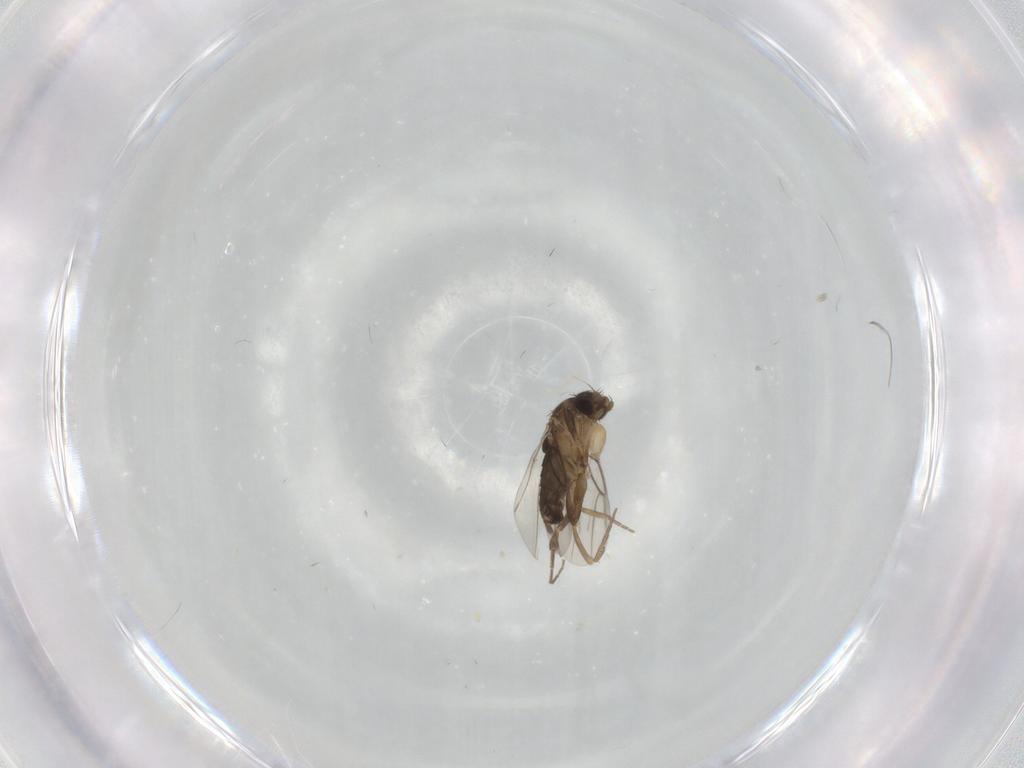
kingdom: Animalia
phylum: Arthropoda
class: Insecta
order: Diptera
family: Phoridae
